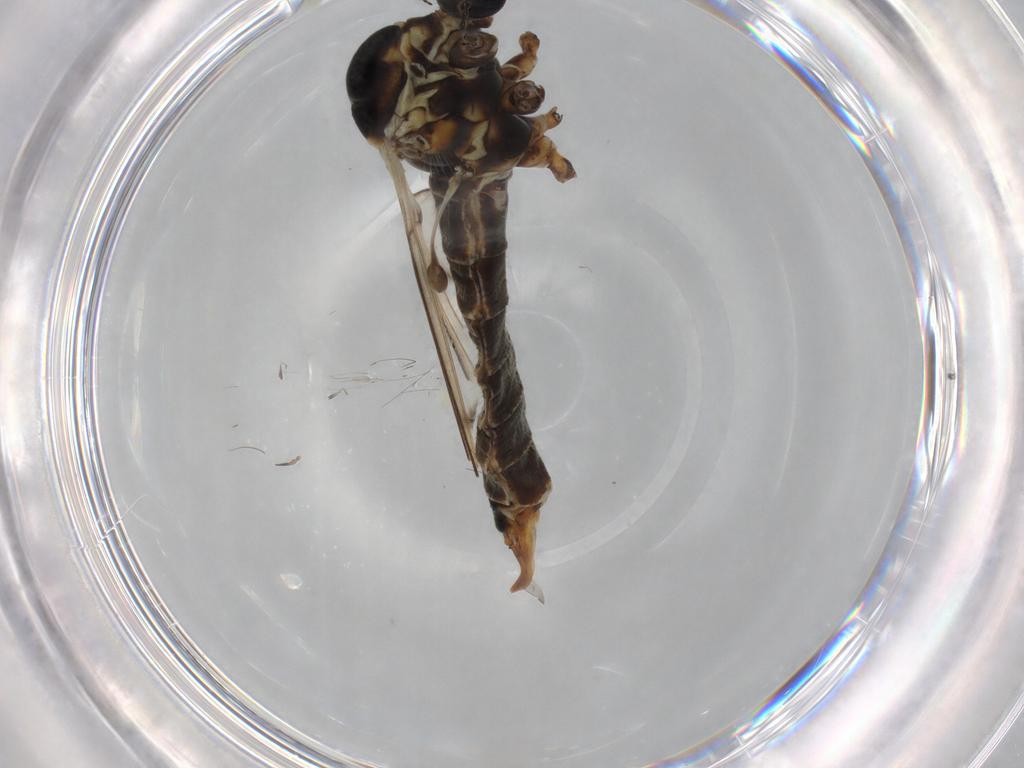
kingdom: Animalia
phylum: Arthropoda
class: Insecta
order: Diptera
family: Limoniidae
